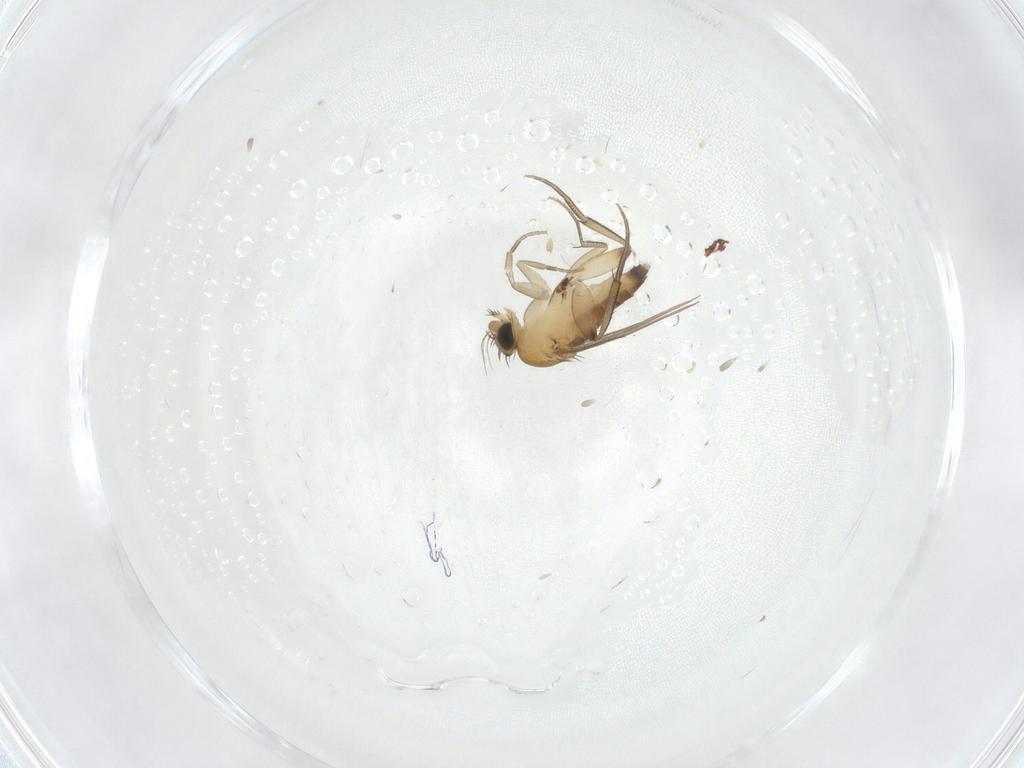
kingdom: Animalia
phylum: Arthropoda
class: Insecta
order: Diptera
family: Phoridae
